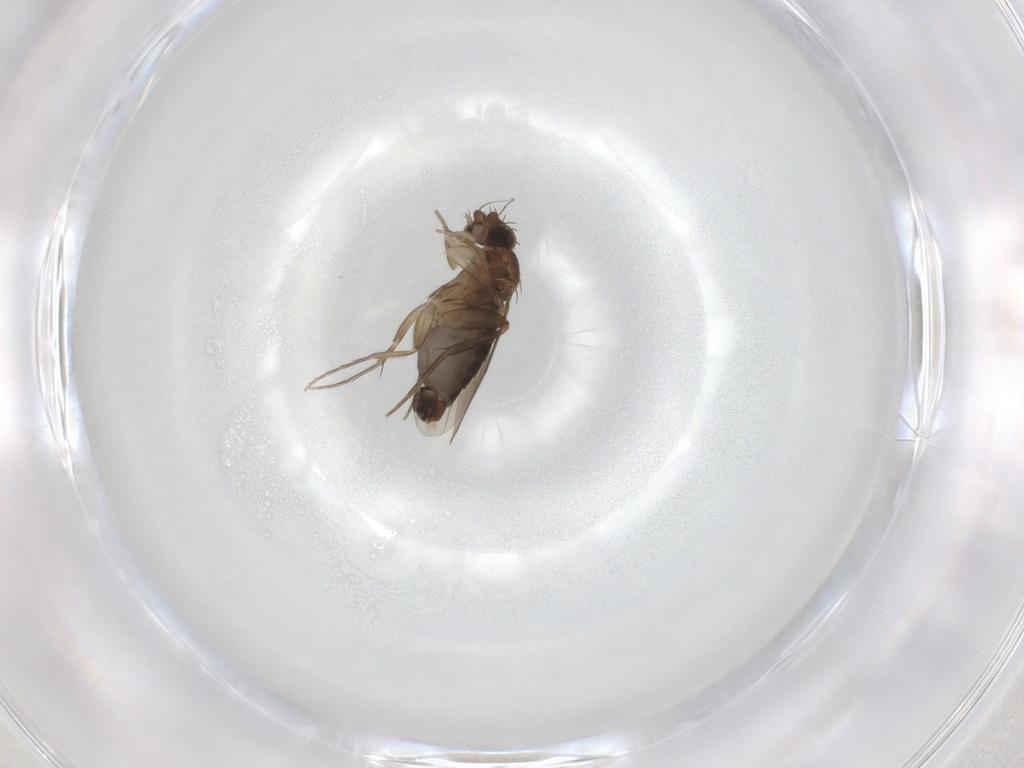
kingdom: Animalia
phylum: Arthropoda
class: Insecta
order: Diptera
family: Phoridae
